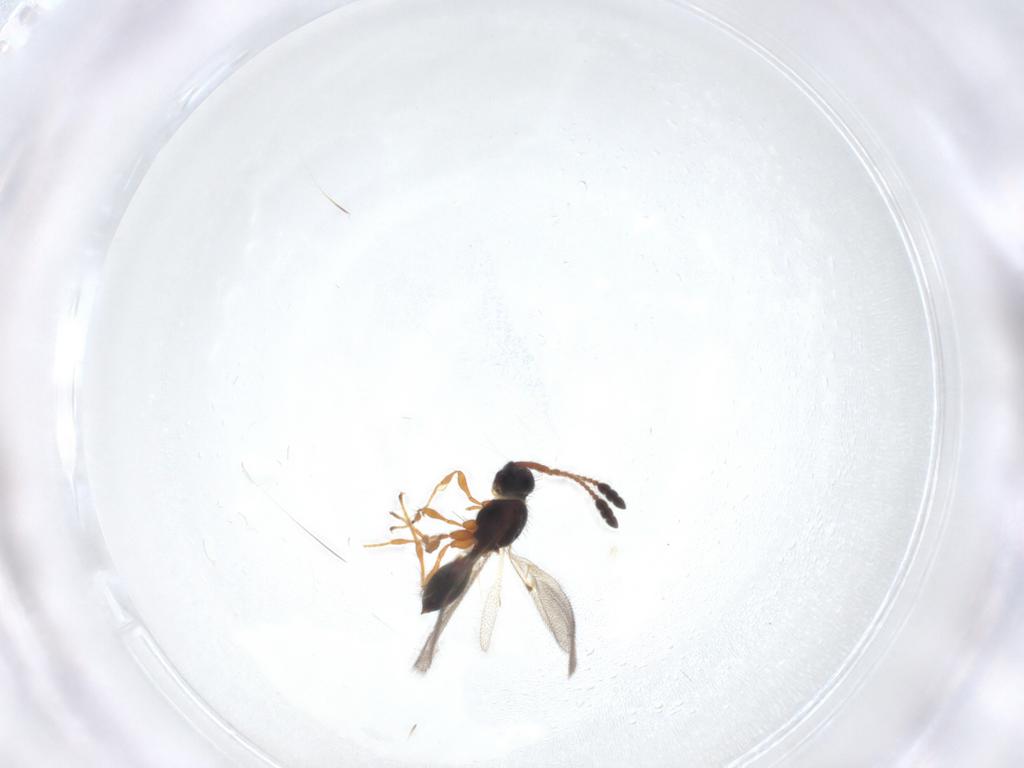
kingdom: Animalia
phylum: Arthropoda
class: Insecta
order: Hymenoptera
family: Diapriidae
